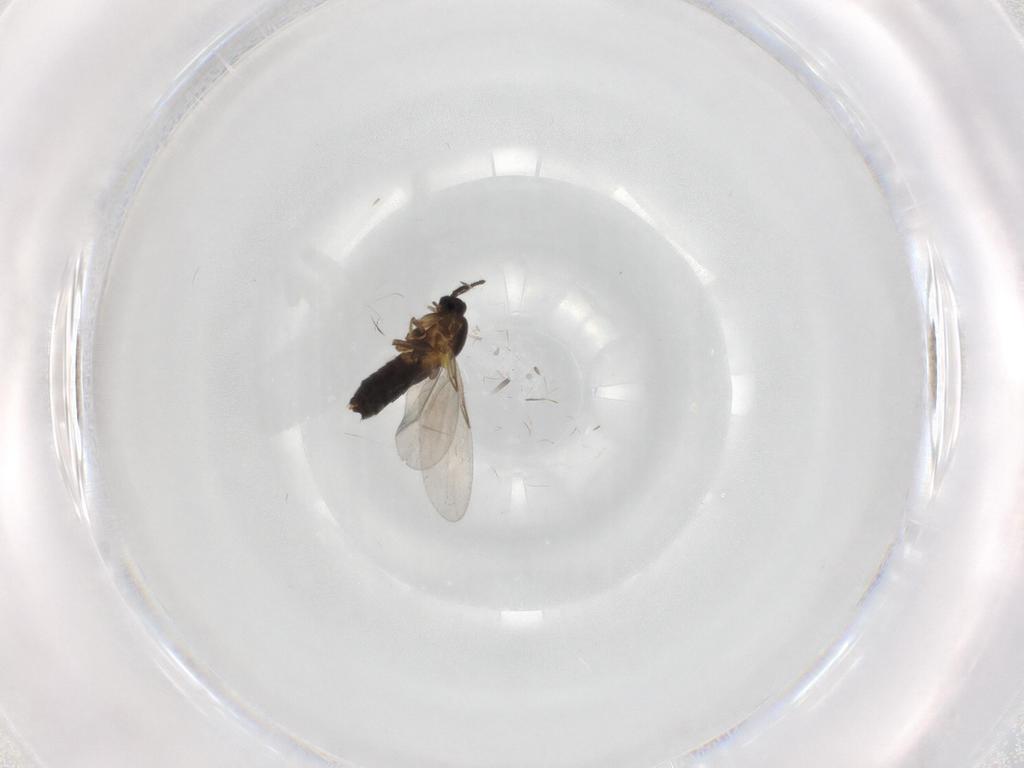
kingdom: Animalia
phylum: Arthropoda
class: Insecta
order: Diptera
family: Scatopsidae
